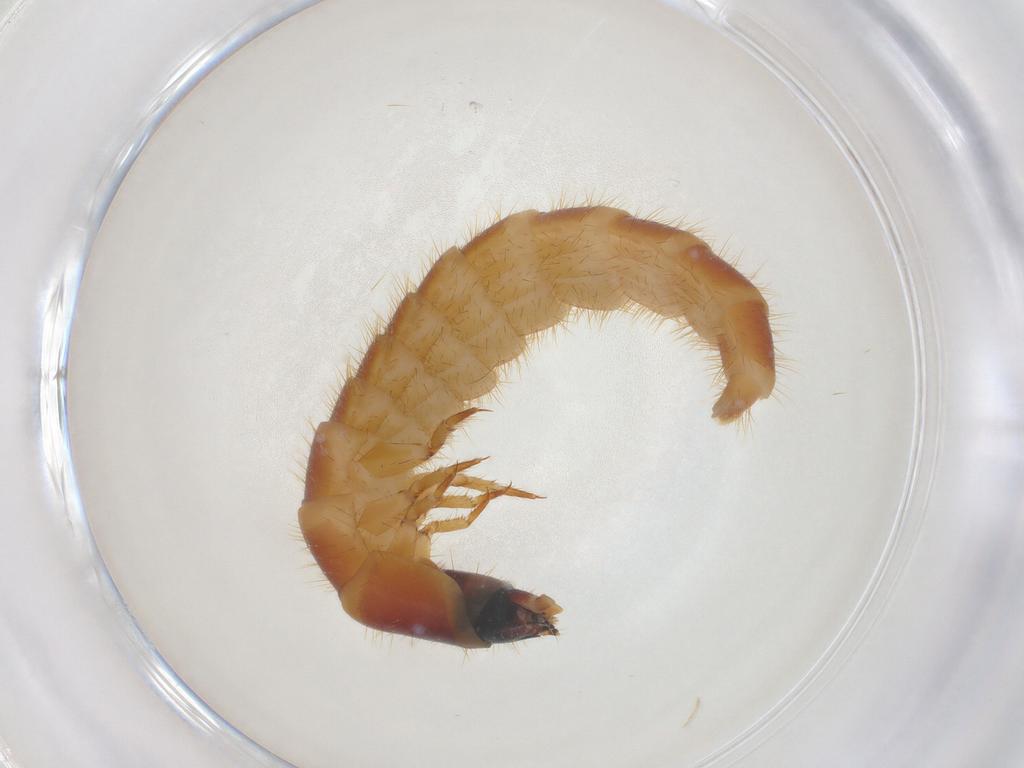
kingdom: Animalia
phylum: Arthropoda
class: Insecta
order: Coleoptera
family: Phengodidae
